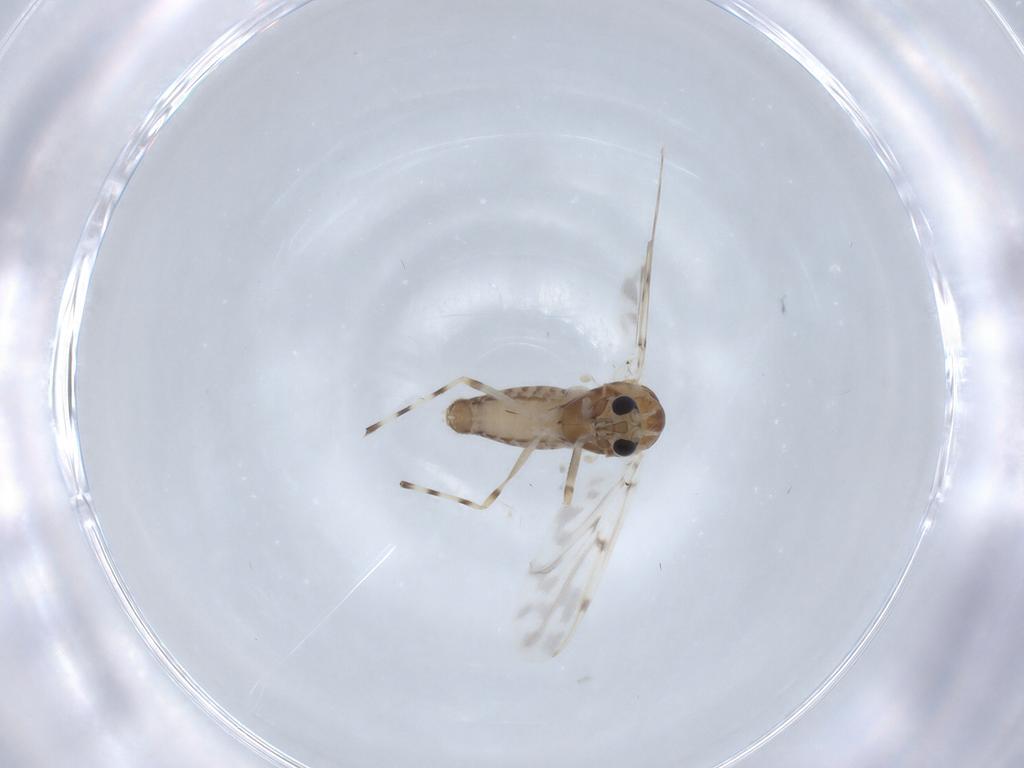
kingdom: Animalia
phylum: Arthropoda
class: Insecta
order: Diptera
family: Chironomidae
